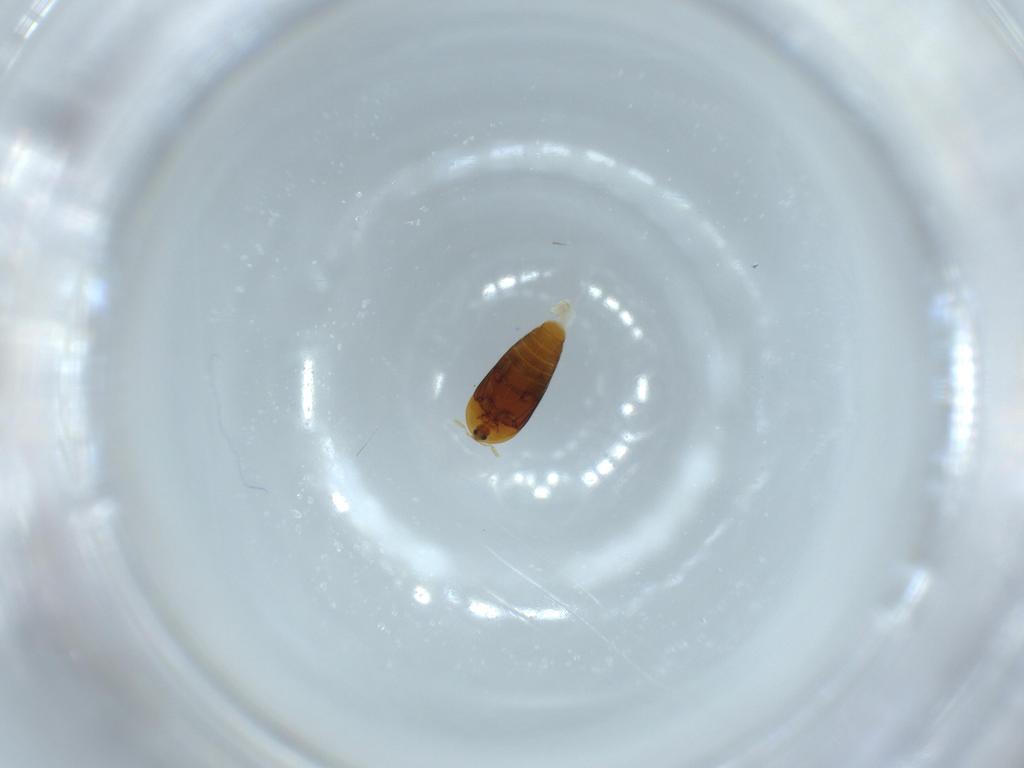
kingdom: Animalia
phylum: Arthropoda
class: Insecta
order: Coleoptera
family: Corylophidae
